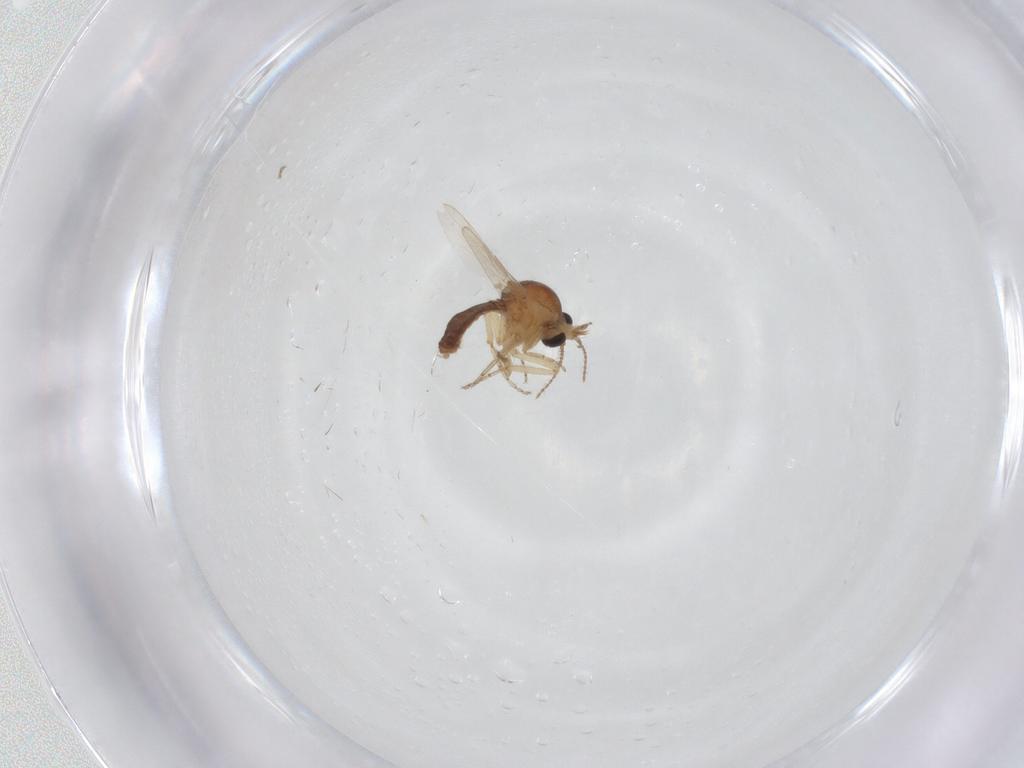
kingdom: Animalia
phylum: Arthropoda
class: Insecta
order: Diptera
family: Ceratopogonidae
